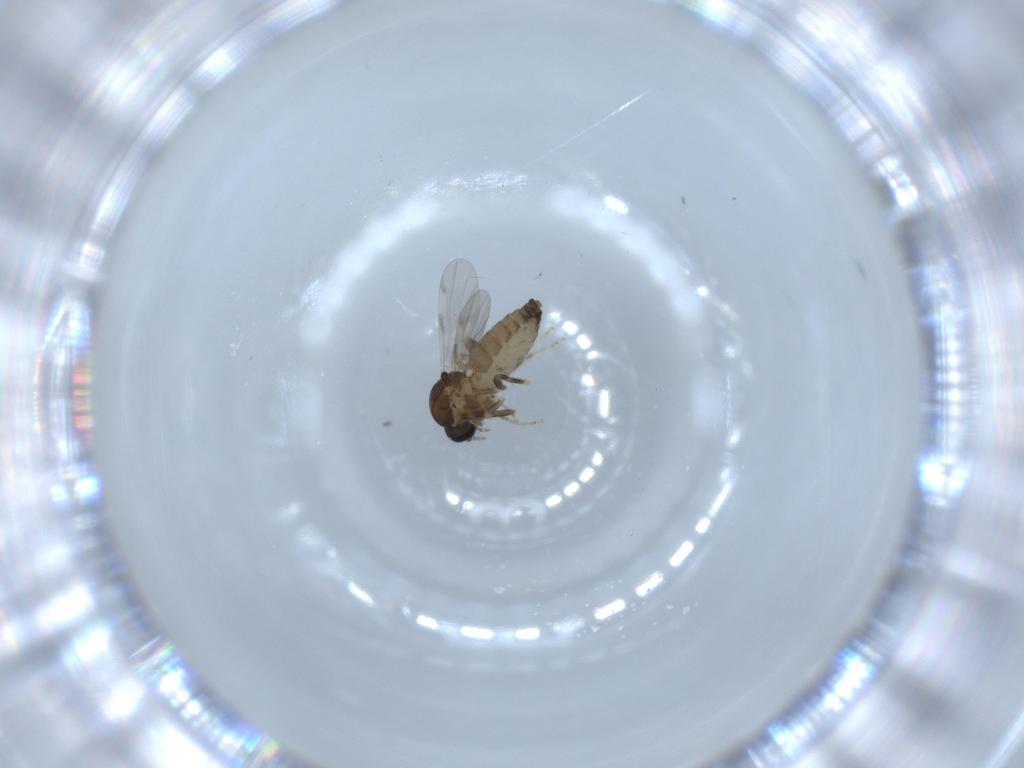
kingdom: Animalia
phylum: Arthropoda
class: Insecta
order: Diptera
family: Ceratopogonidae
